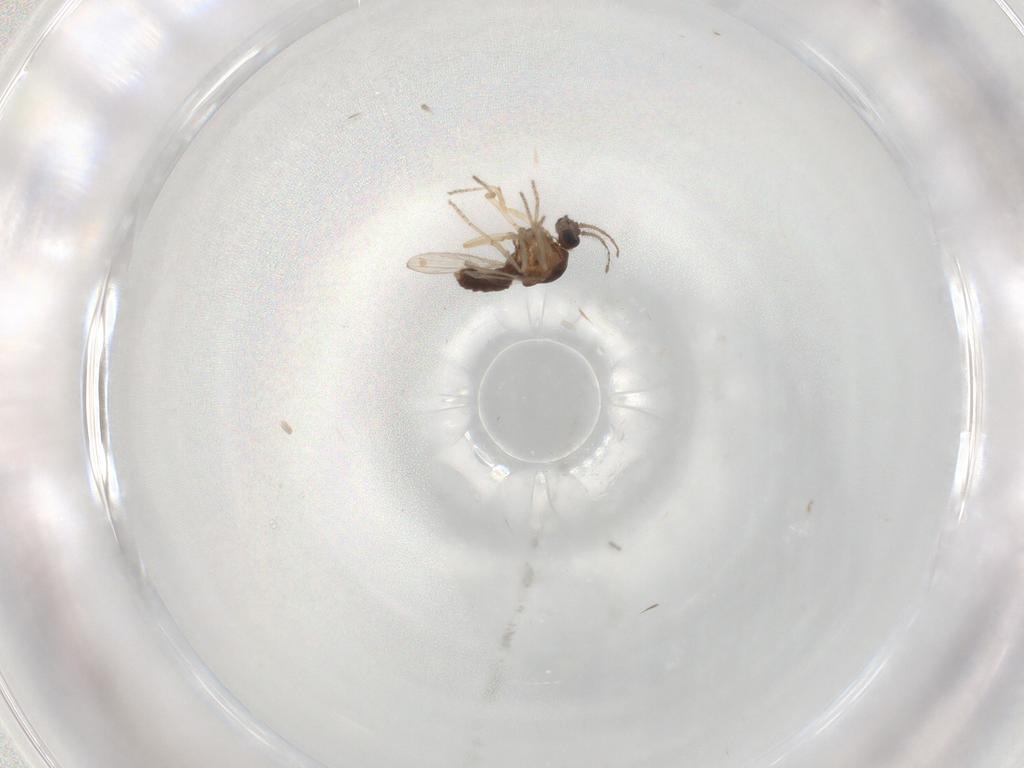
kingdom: Animalia
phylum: Arthropoda
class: Insecta
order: Diptera
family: Ceratopogonidae
